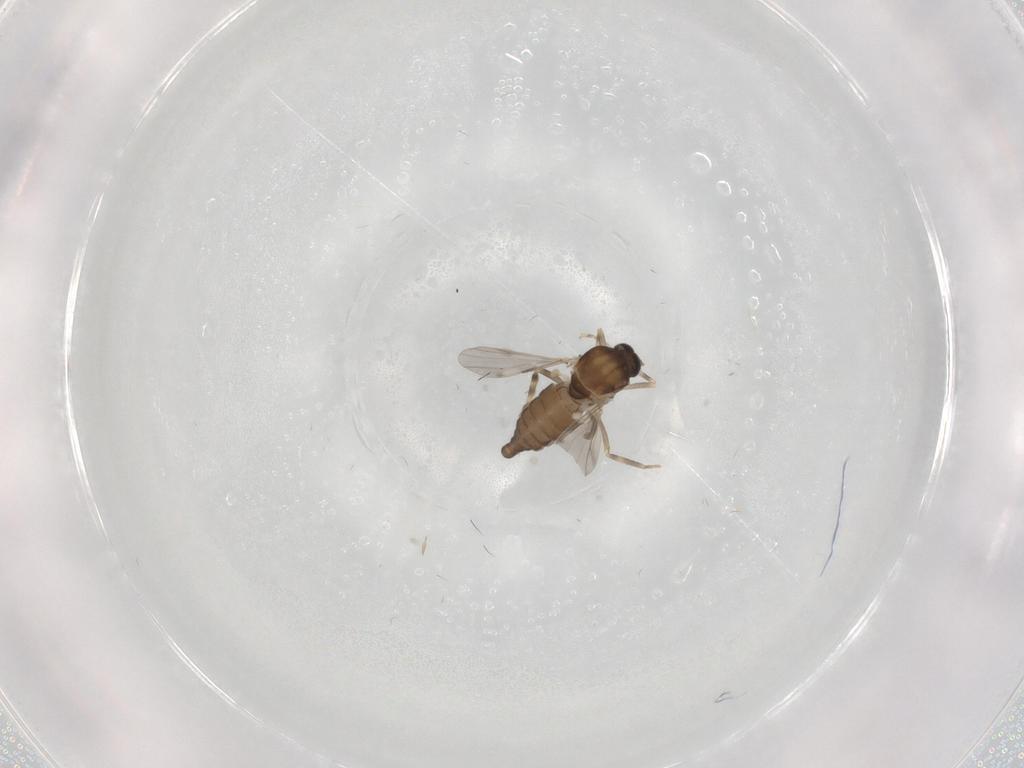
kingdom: Animalia
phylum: Arthropoda
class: Insecta
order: Diptera
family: Ceratopogonidae
